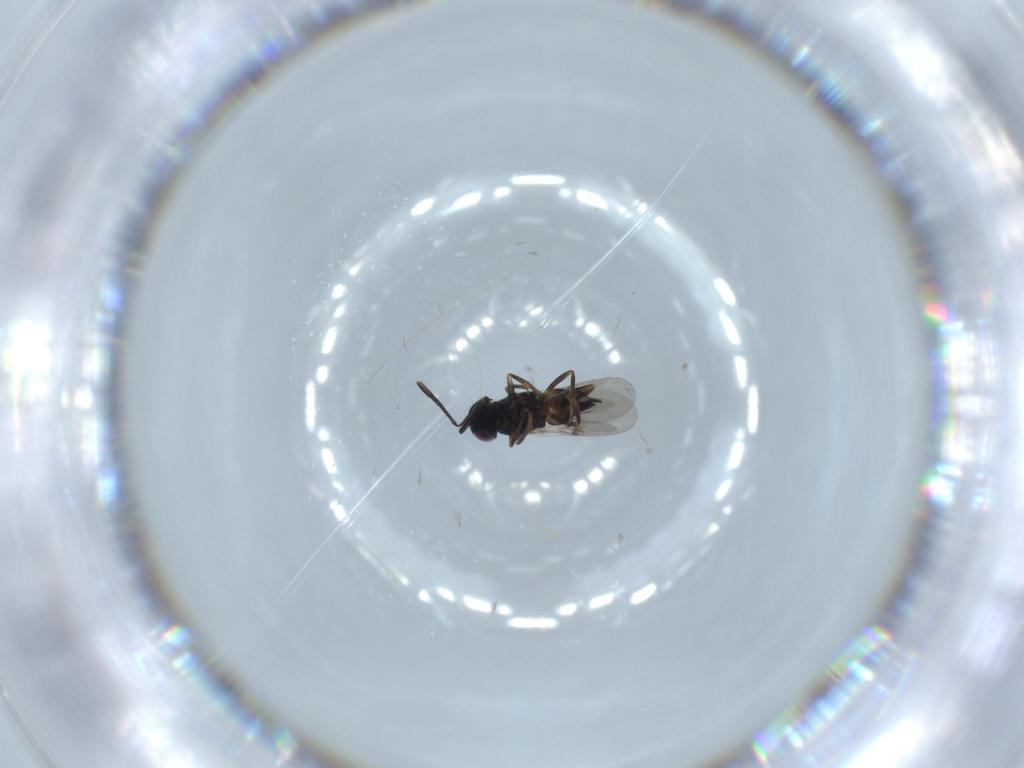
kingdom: Animalia
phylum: Arthropoda
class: Insecta
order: Hymenoptera
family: Encyrtidae
